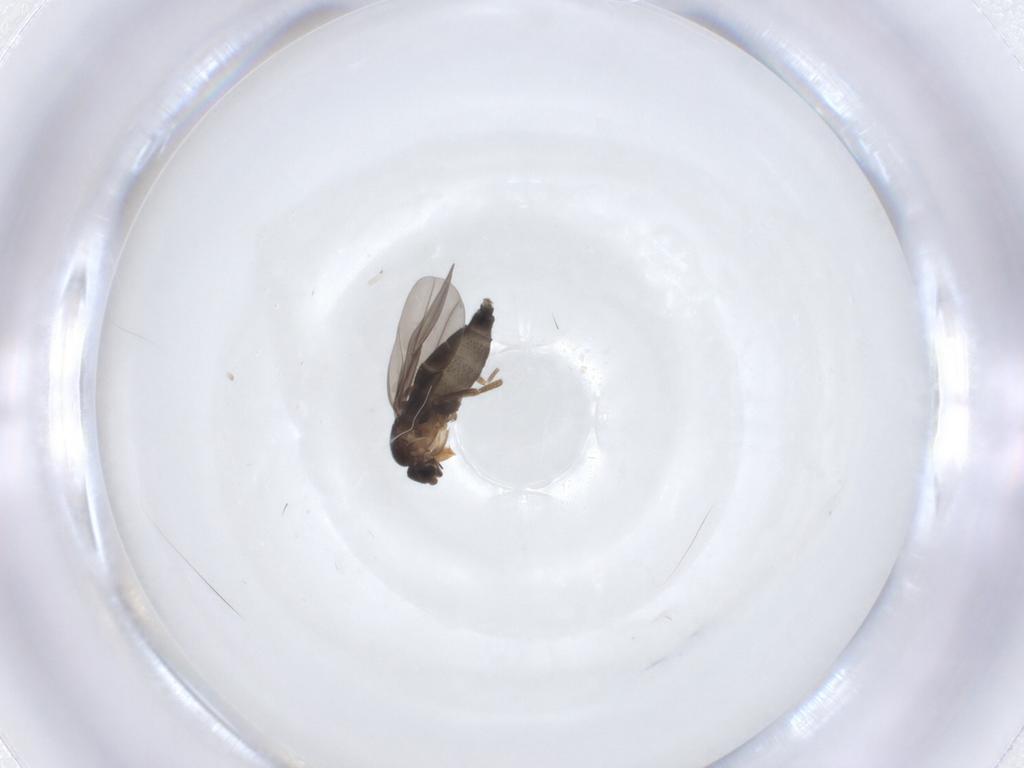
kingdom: Animalia
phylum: Arthropoda
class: Insecta
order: Diptera
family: Phoridae
